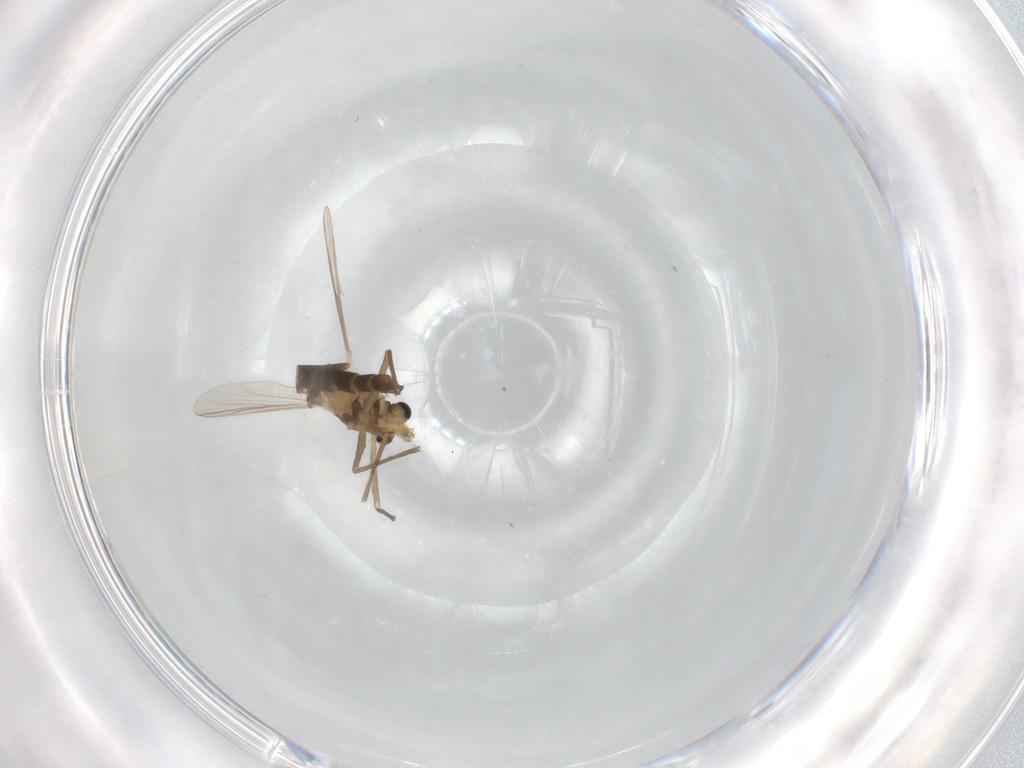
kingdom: Animalia
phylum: Arthropoda
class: Insecta
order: Diptera
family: Chironomidae
